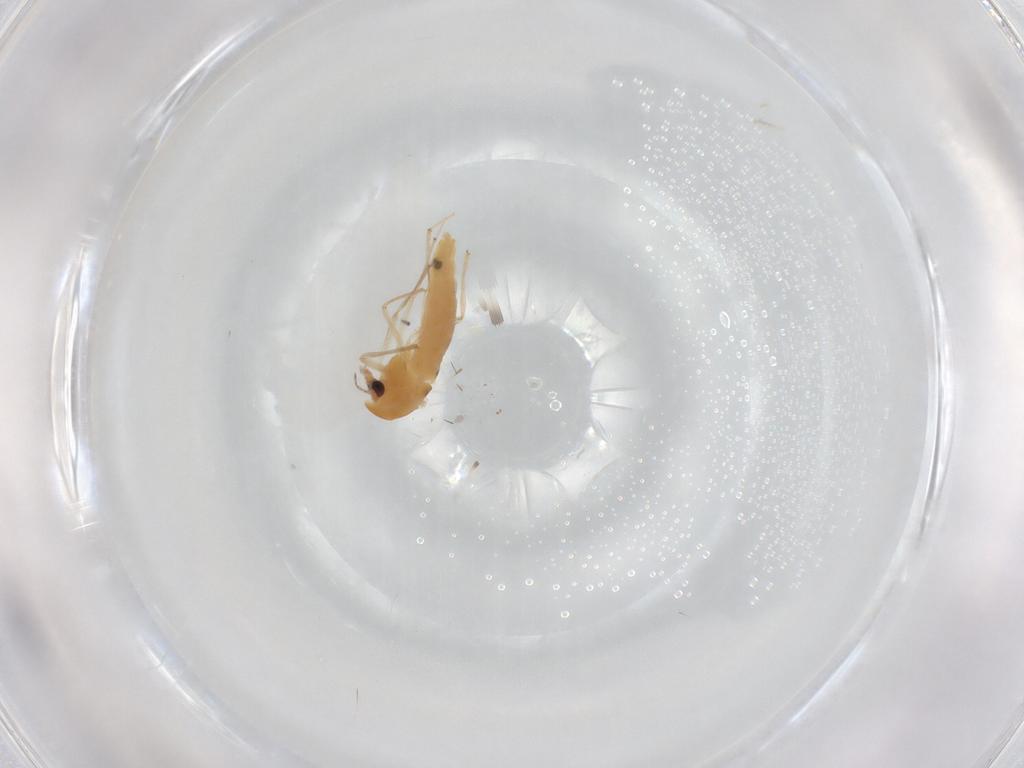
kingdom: Animalia
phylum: Arthropoda
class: Insecta
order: Diptera
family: Chironomidae
